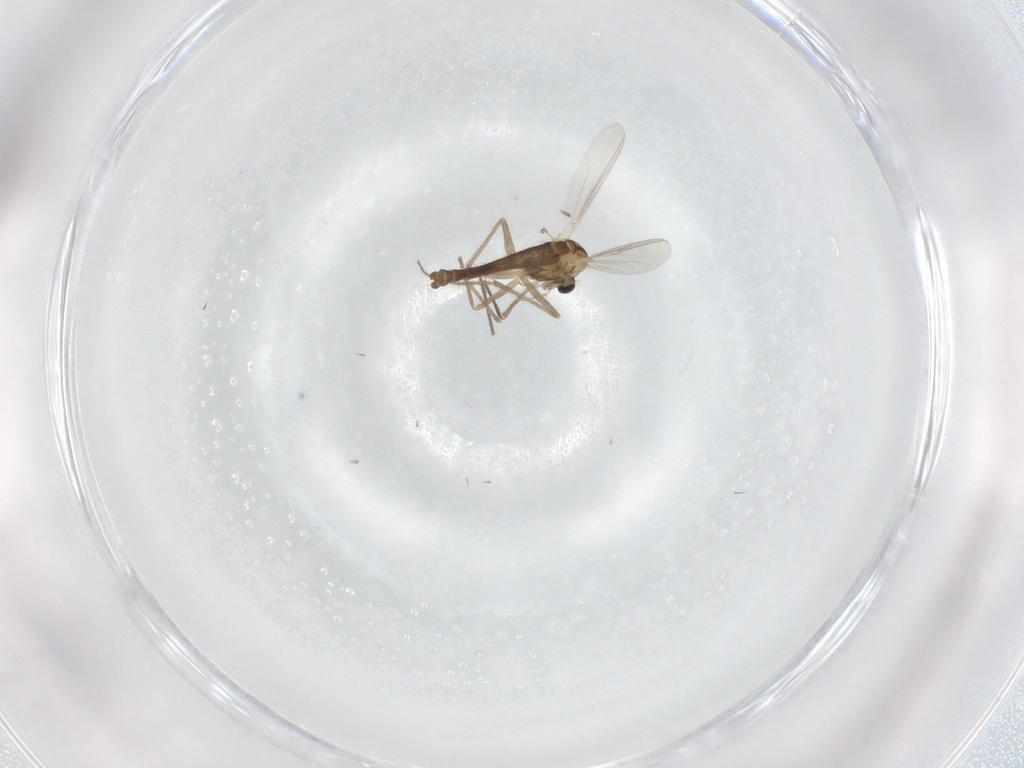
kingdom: Animalia
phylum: Arthropoda
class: Insecta
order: Diptera
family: Chironomidae
